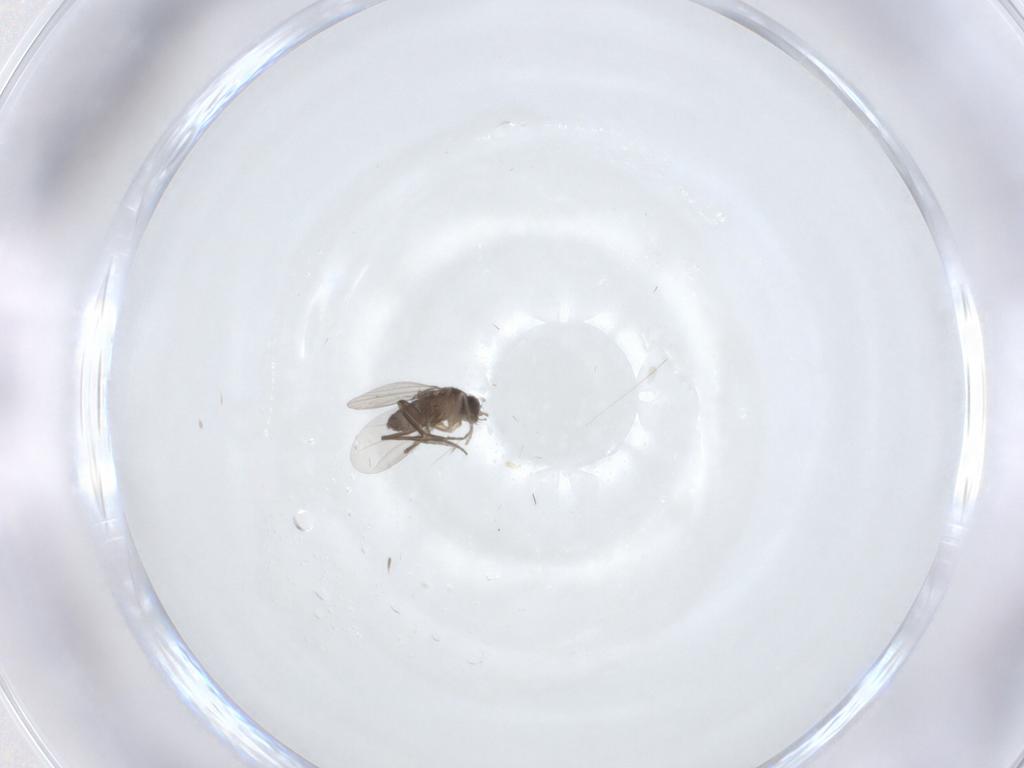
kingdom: Animalia
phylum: Arthropoda
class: Insecta
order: Diptera
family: Phoridae
